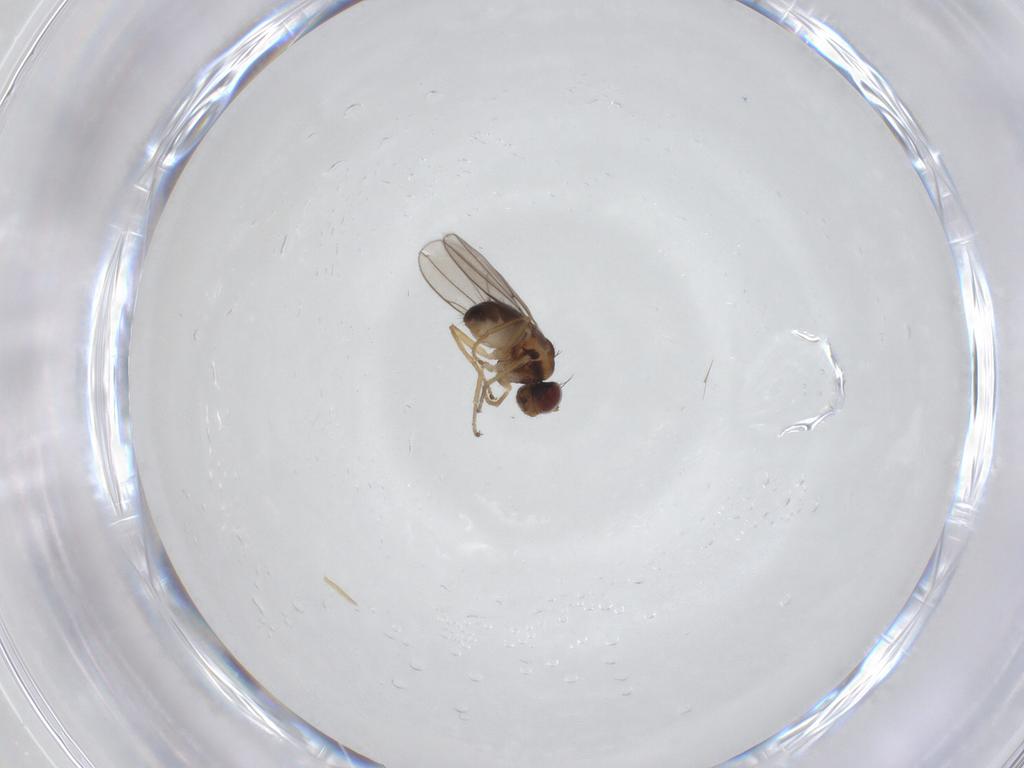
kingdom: Animalia
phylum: Arthropoda
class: Insecta
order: Diptera
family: Ephydridae
